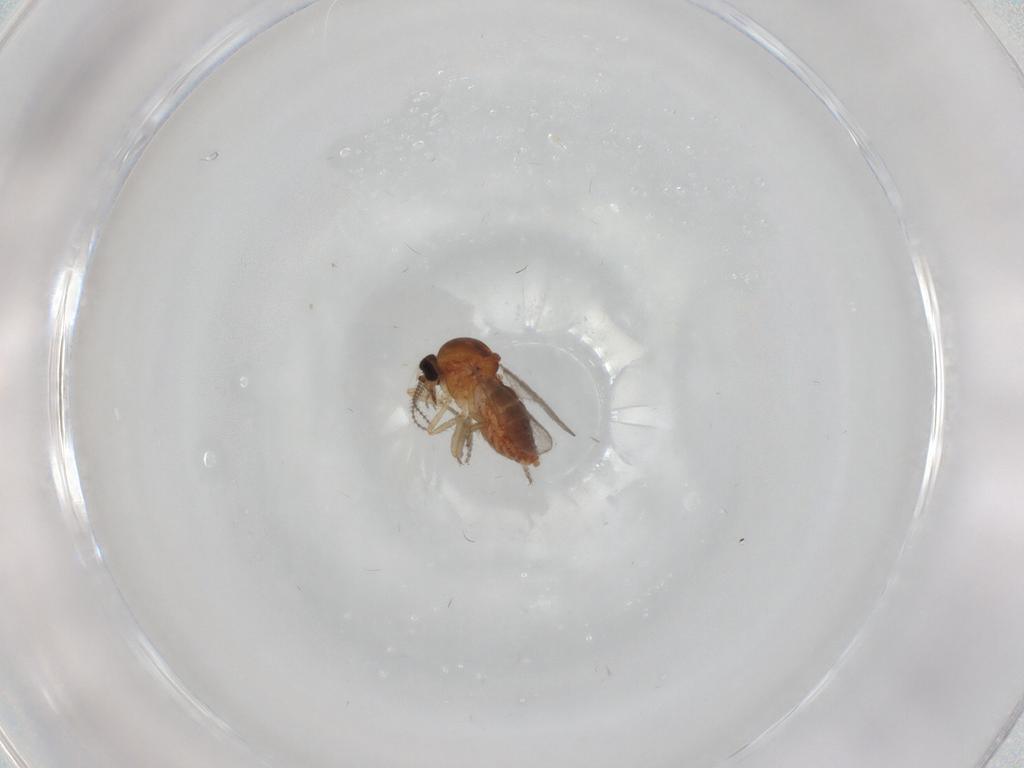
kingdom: Animalia
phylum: Arthropoda
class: Insecta
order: Diptera
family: Ceratopogonidae
